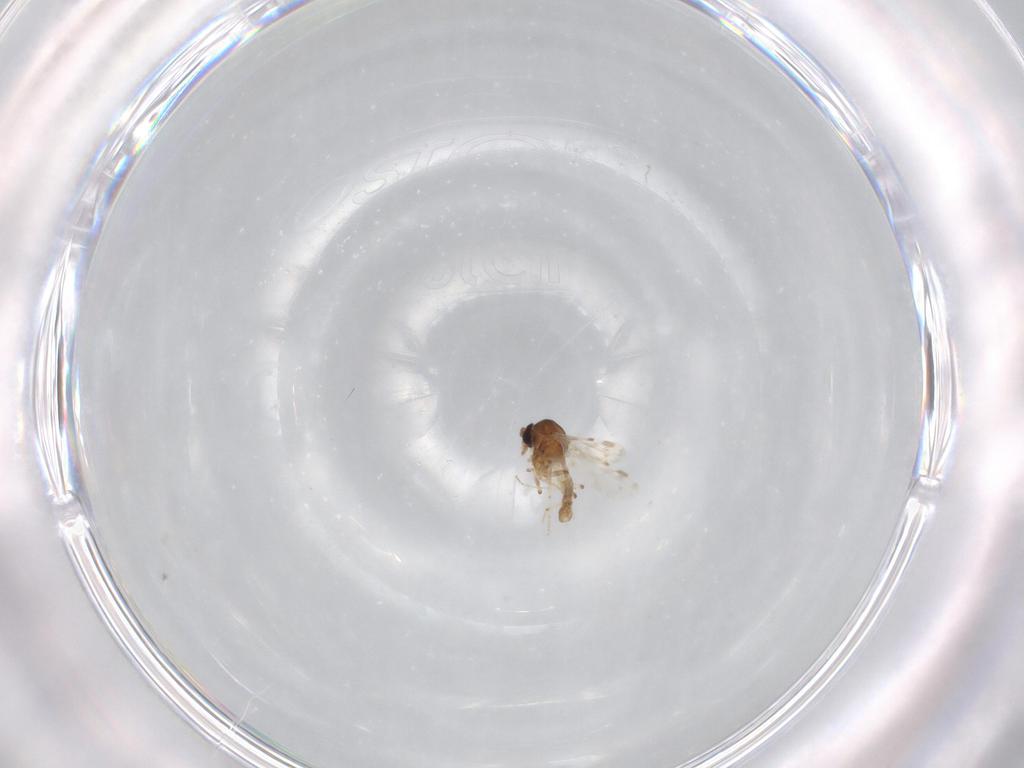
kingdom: Animalia
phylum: Arthropoda
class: Insecta
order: Diptera
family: Ceratopogonidae
